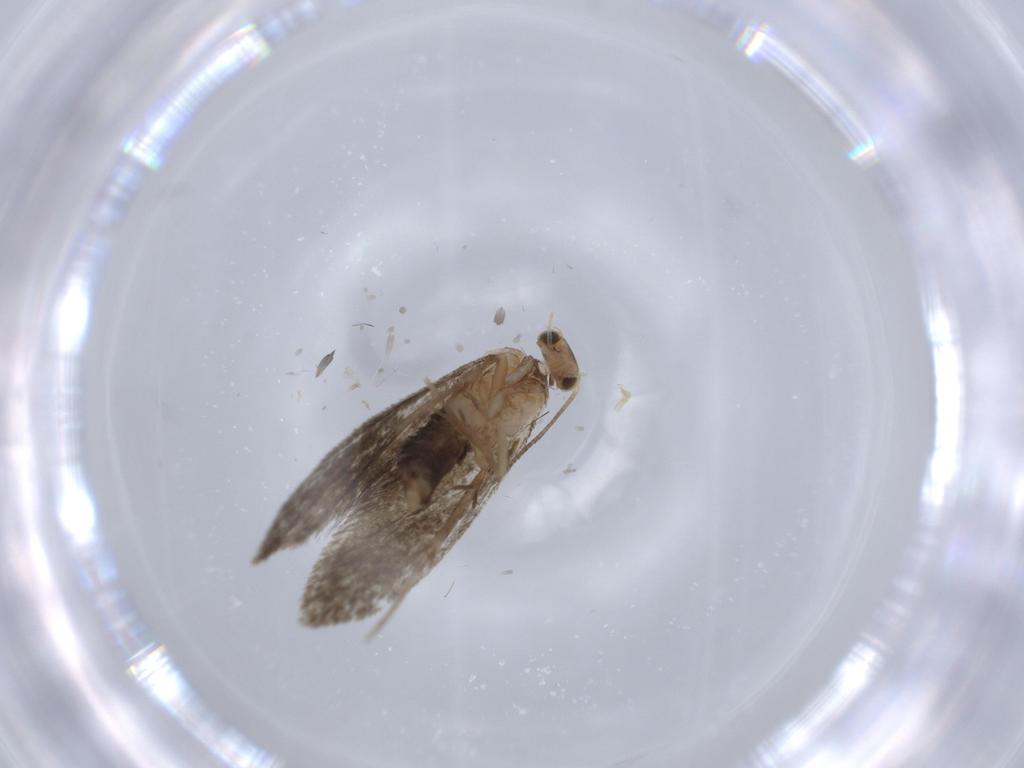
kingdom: Animalia
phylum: Arthropoda
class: Insecta
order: Lepidoptera
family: Tineidae
